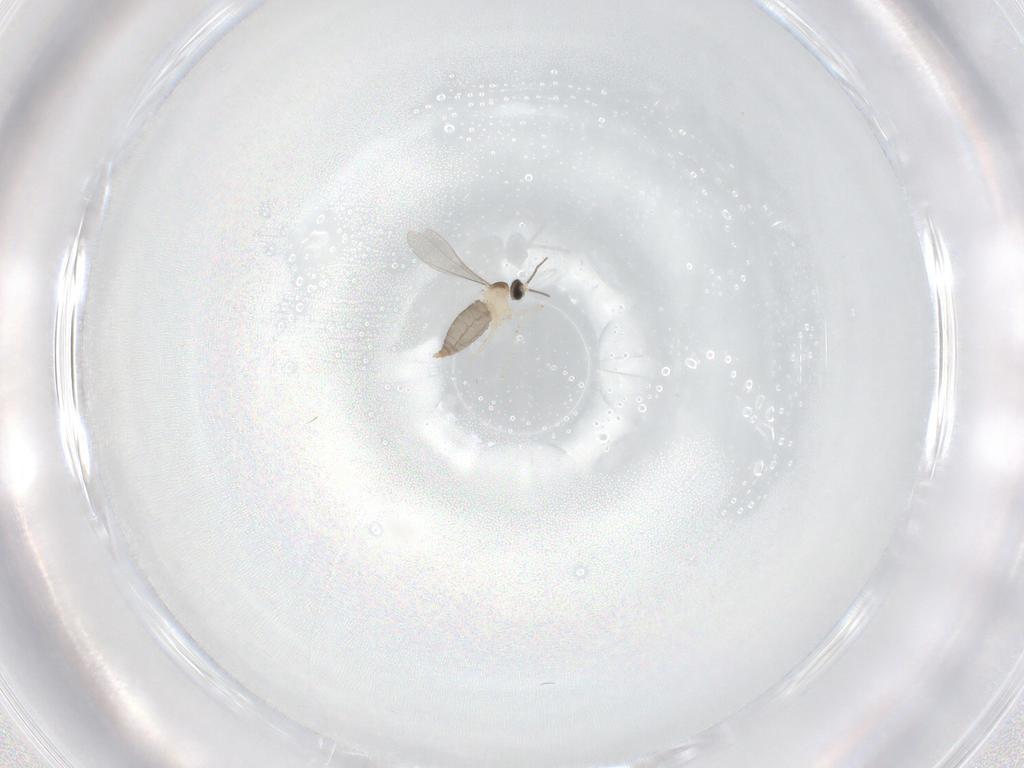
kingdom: Animalia
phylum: Arthropoda
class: Insecta
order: Diptera
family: Cecidomyiidae
